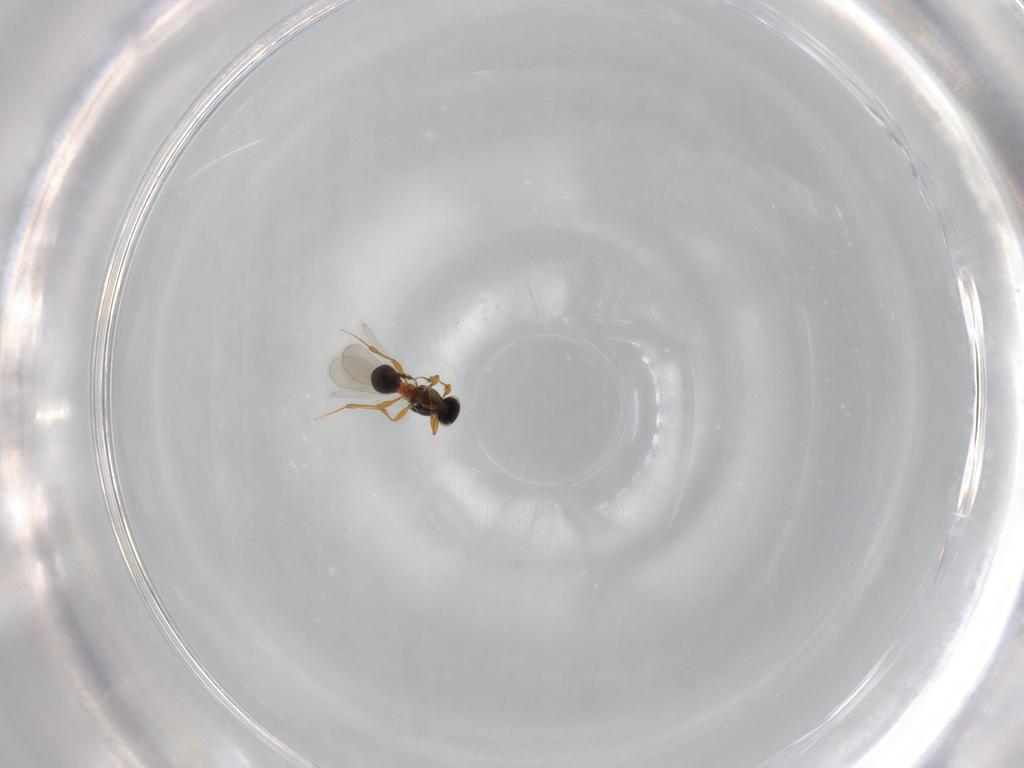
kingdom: Animalia
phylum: Arthropoda
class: Insecta
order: Hymenoptera
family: Platygastridae
